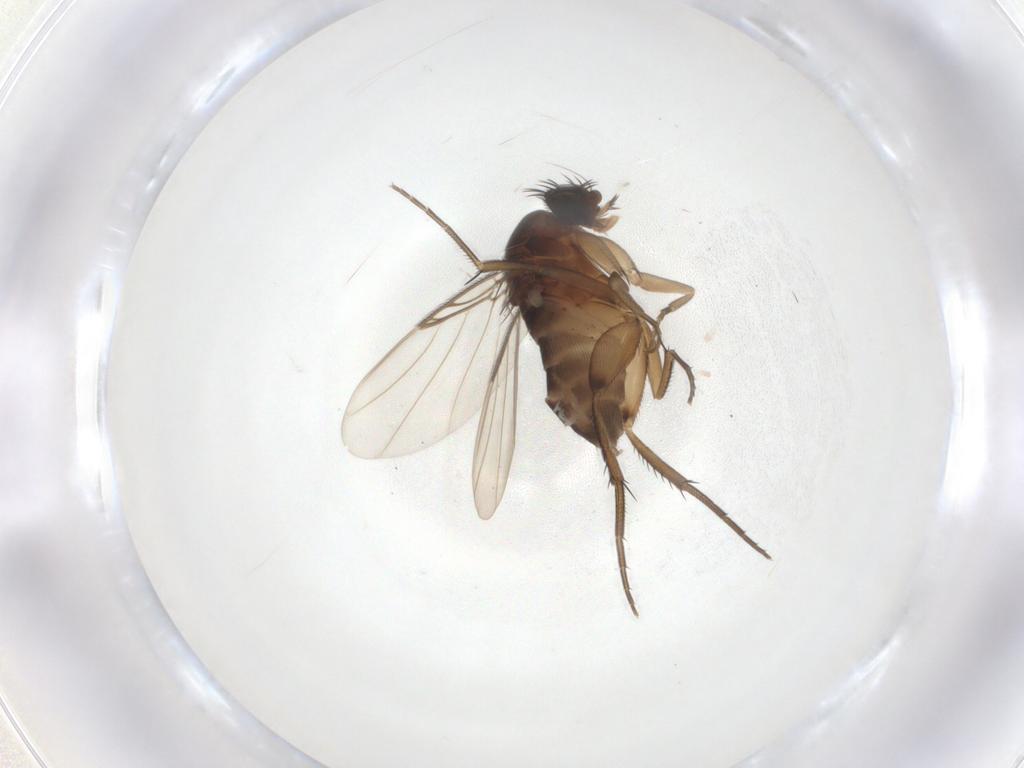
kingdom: Animalia
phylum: Arthropoda
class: Insecta
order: Diptera
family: Phoridae
